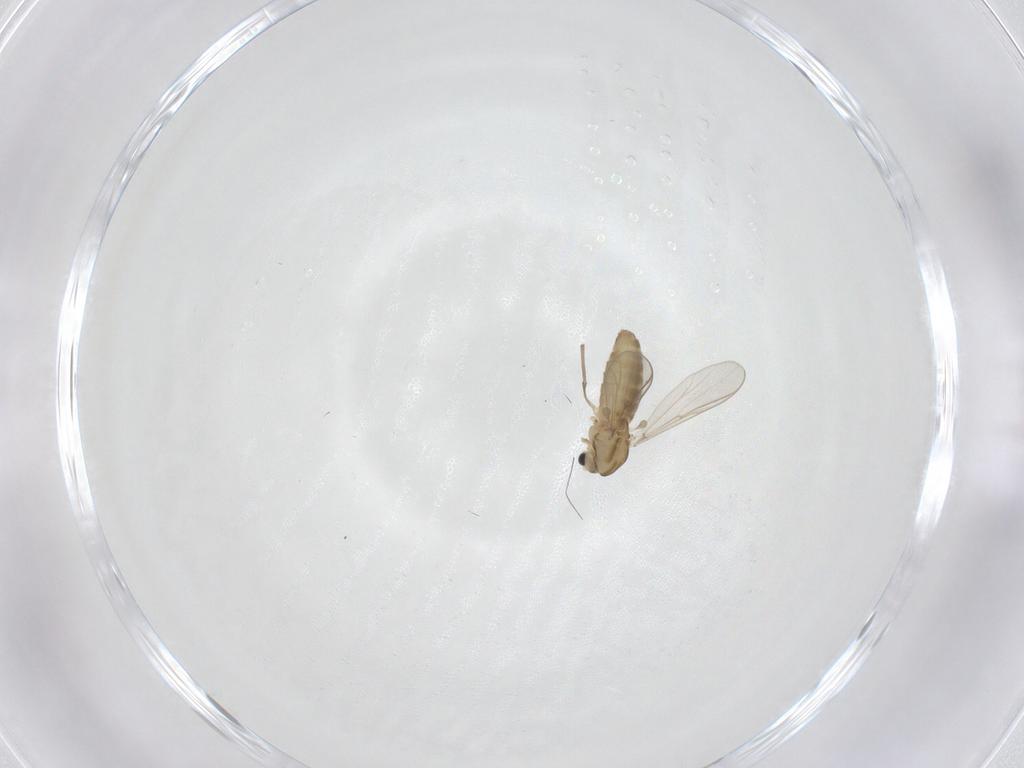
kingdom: Animalia
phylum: Arthropoda
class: Insecta
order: Diptera
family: Chironomidae
